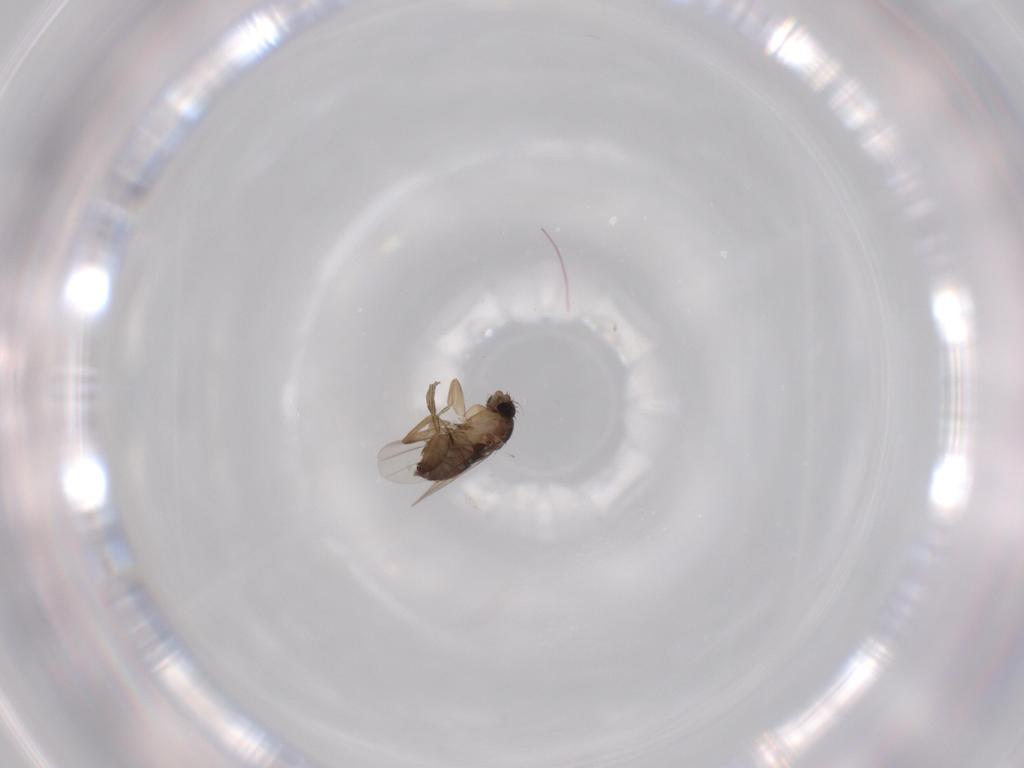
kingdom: Animalia
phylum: Arthropoda
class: Insecta
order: Diptera
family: Phoridae
